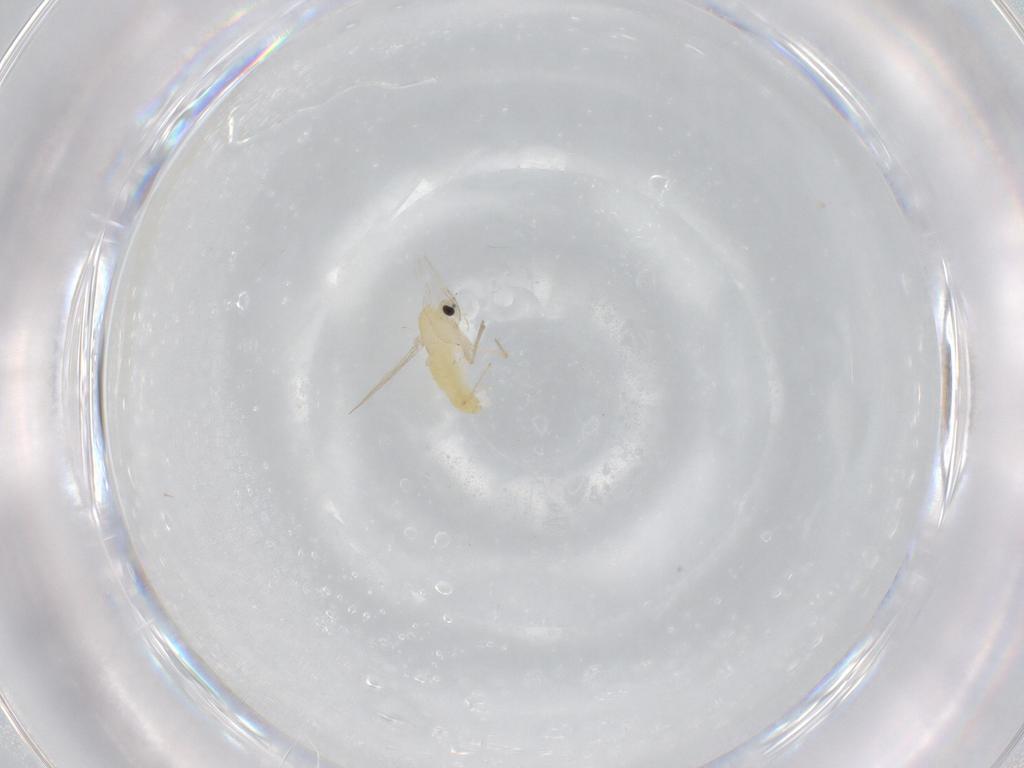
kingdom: Animalia
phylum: Arthropoda
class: Insecta
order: Diptera
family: Chironomidae
